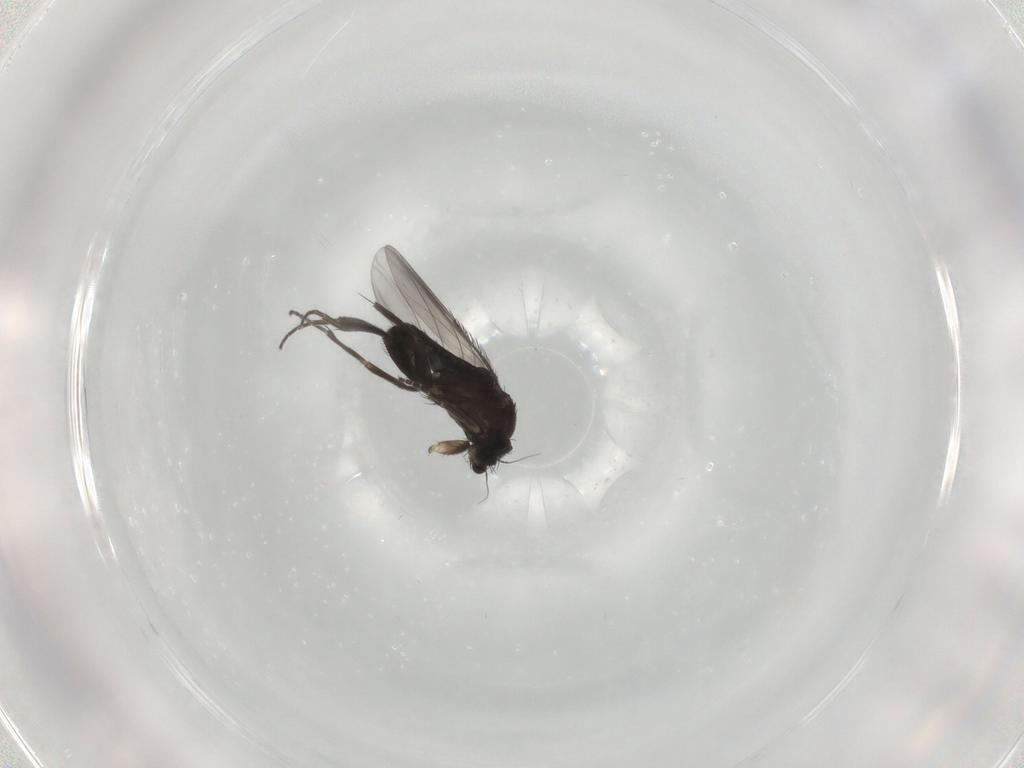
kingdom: Animalia
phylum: Arthropoda
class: Insecta
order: Diptera
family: Phoridae
